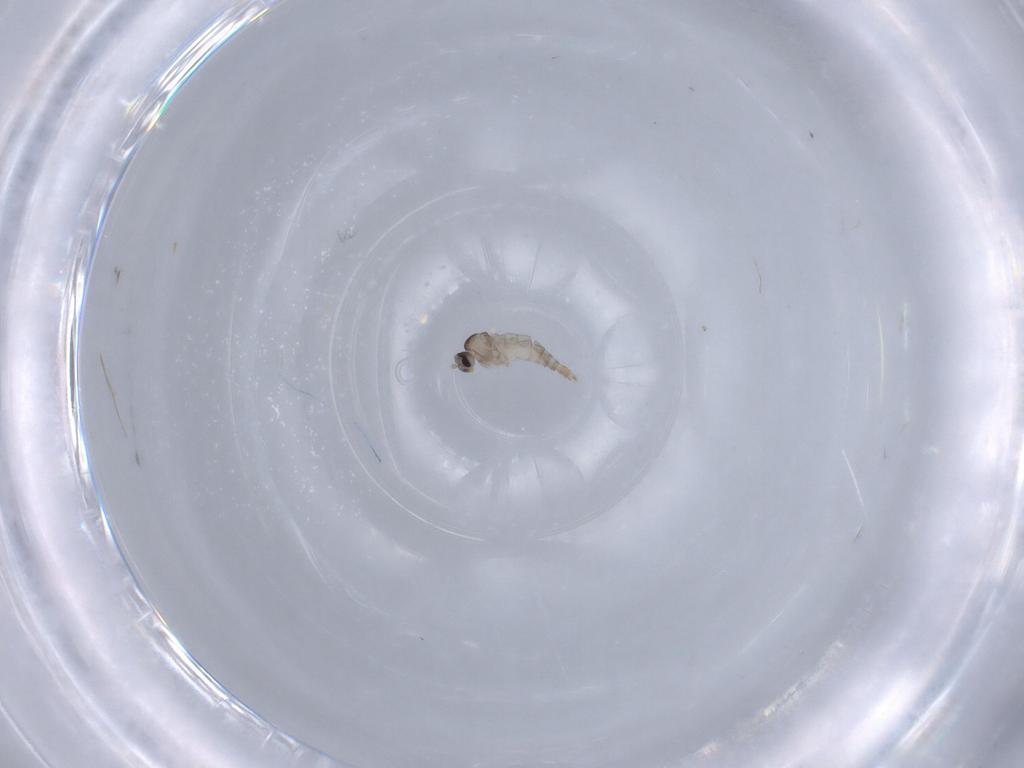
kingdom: Animalia
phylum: Arthropoda
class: Insecta
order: Diptera
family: Cecidomyiidae
